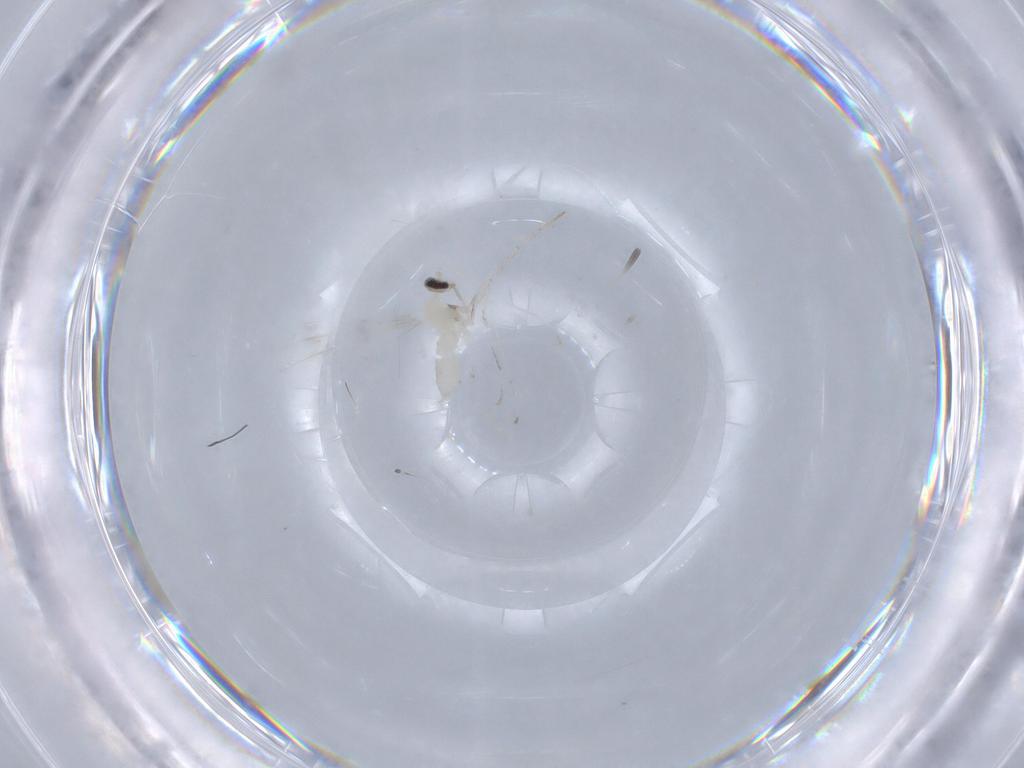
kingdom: Animalia
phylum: Arthropoda
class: Insecta
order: Diptera
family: Cecidomyiidae
